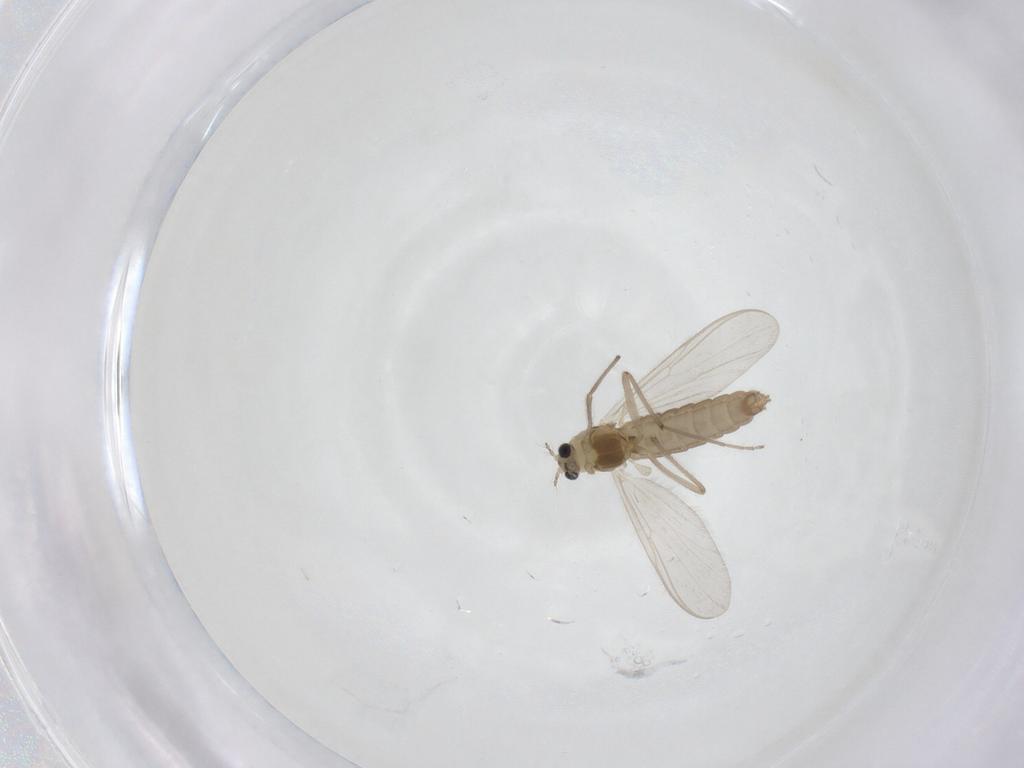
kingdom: Animalia
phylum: Arthropoda
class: Insecta
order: Diptera
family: Chironomidae
